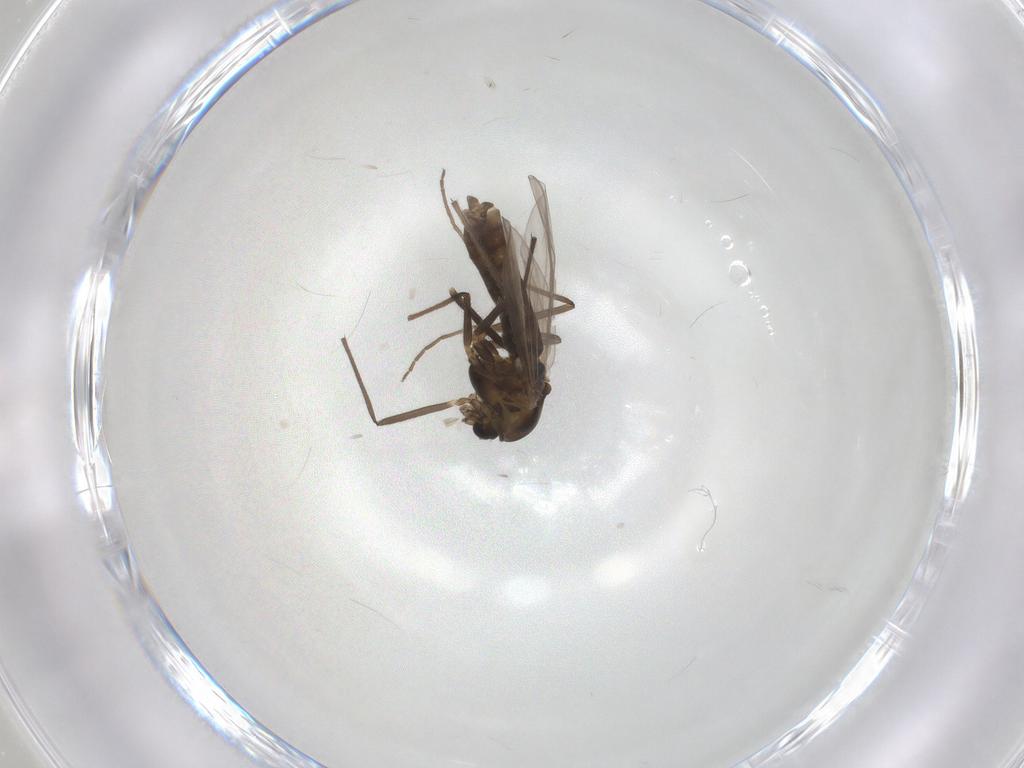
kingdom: Animalia
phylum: Arthropoda
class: Insecta
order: Diptera
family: Chironomidae
